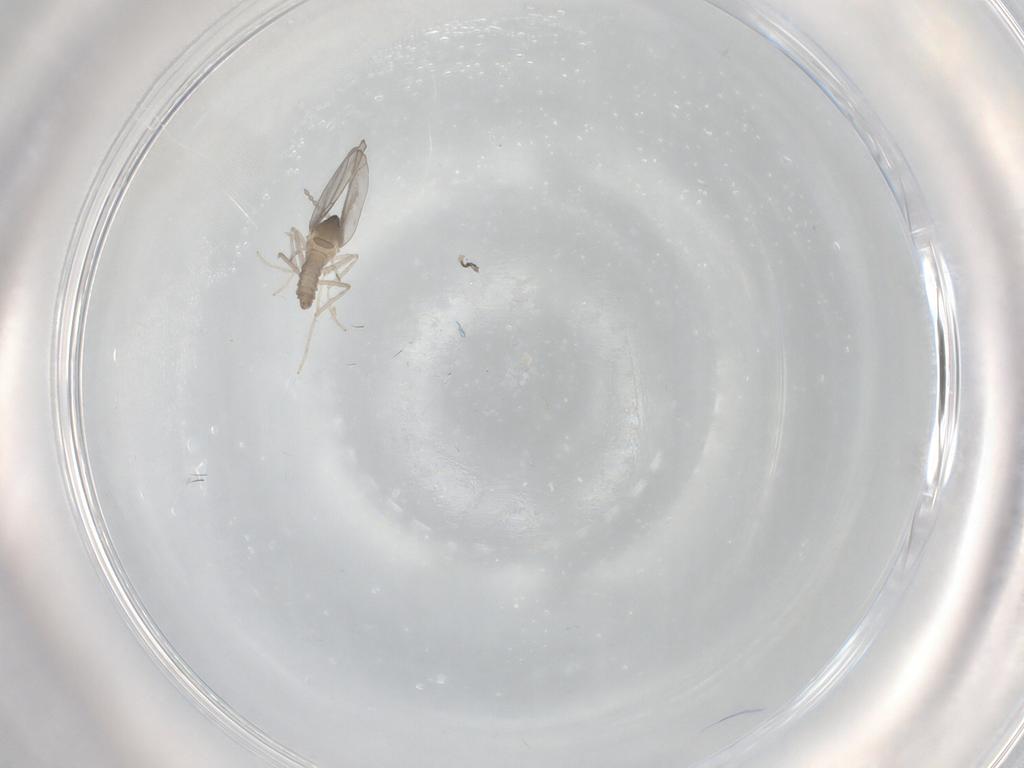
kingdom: Animalia
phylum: Arthropoda
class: Insecta
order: Diptera
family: Cecidomyiidae
